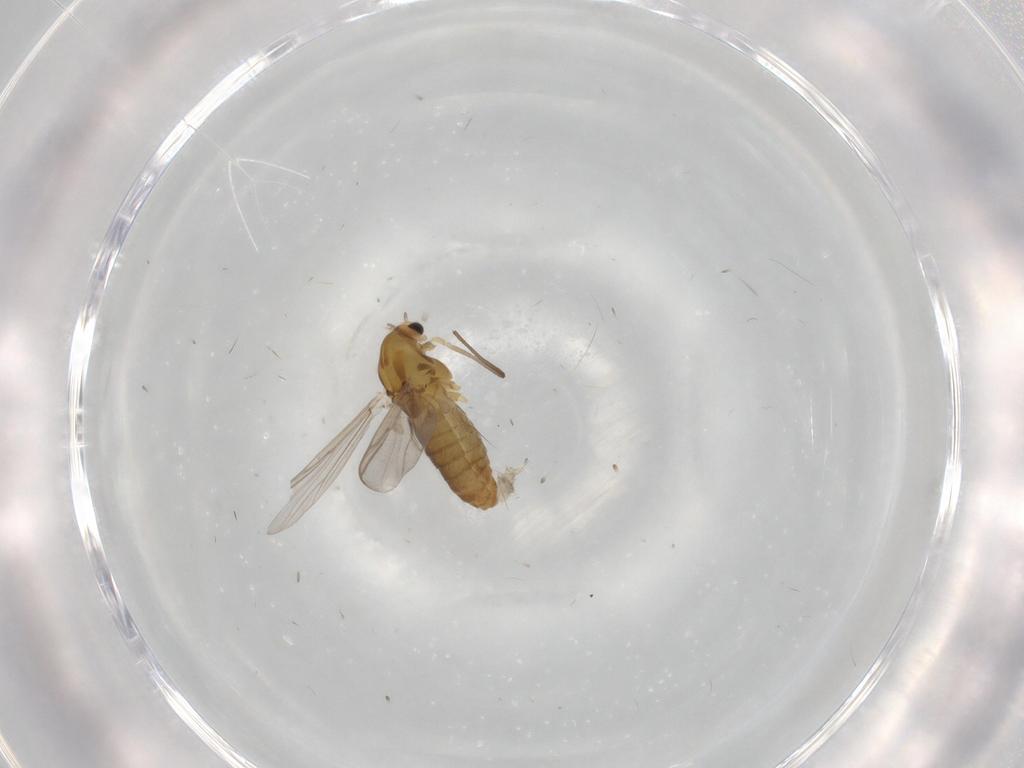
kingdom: Animalia
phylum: Arthropoda
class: Insecta
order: Diptera
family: Chironomidae
